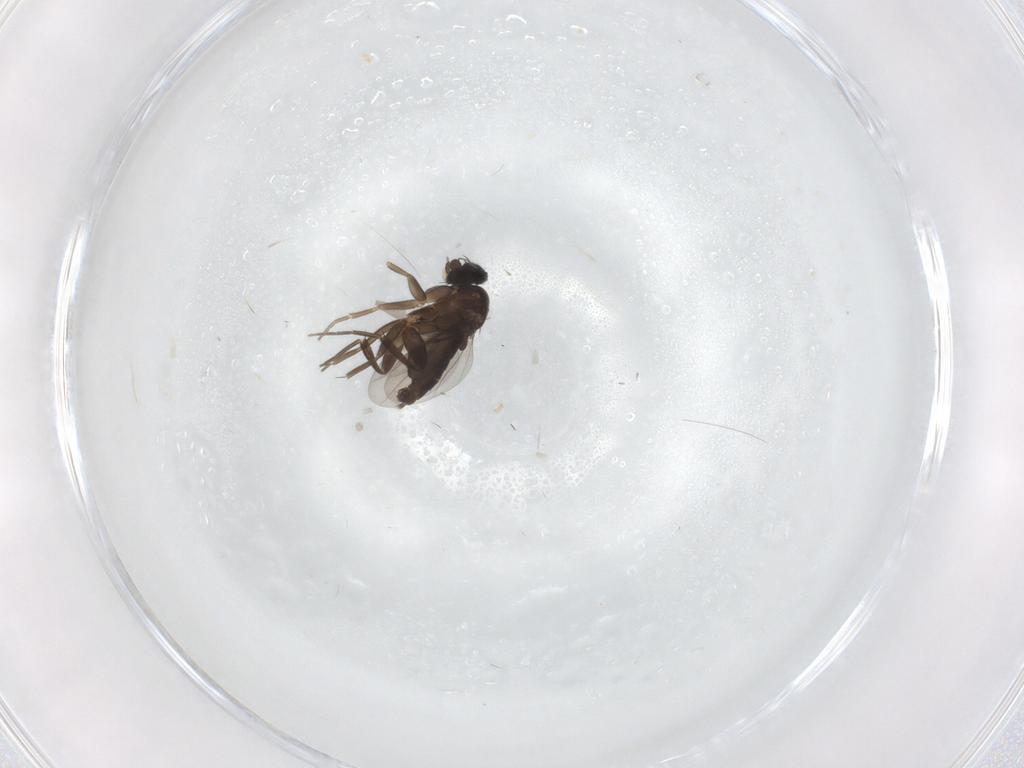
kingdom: Animalia
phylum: Arthropoda
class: Insecta
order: Diptera
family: Phoridae
